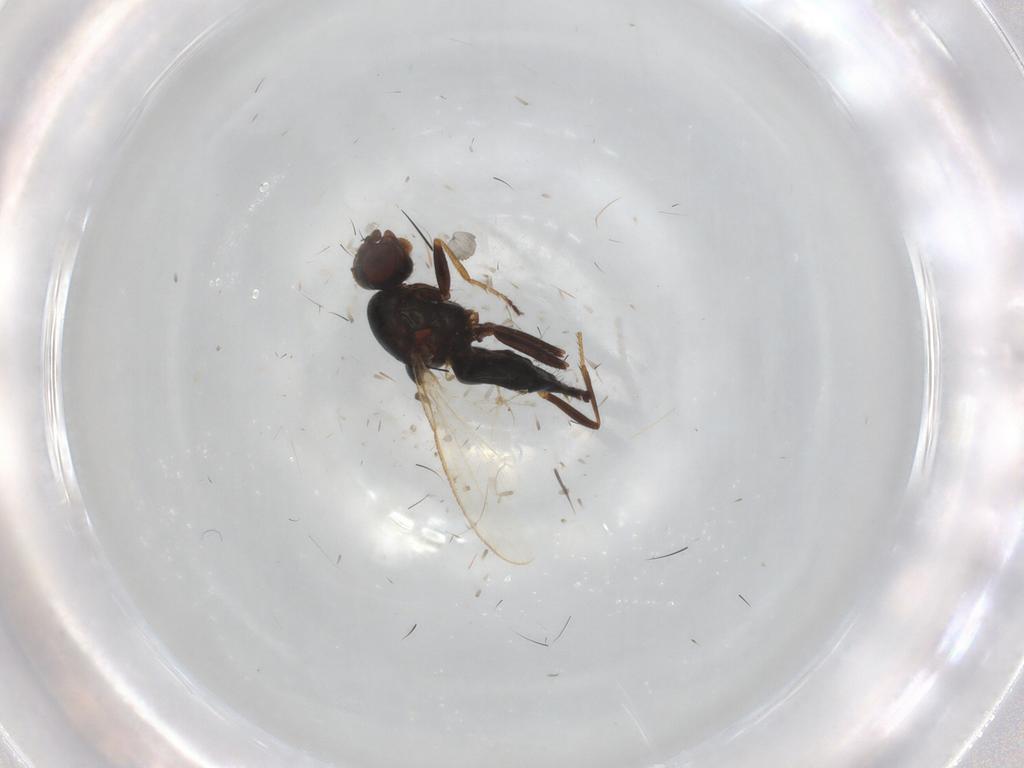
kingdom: Animalia
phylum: Arthropoda
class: Insecta
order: Diptera
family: Sphaeroceridae
